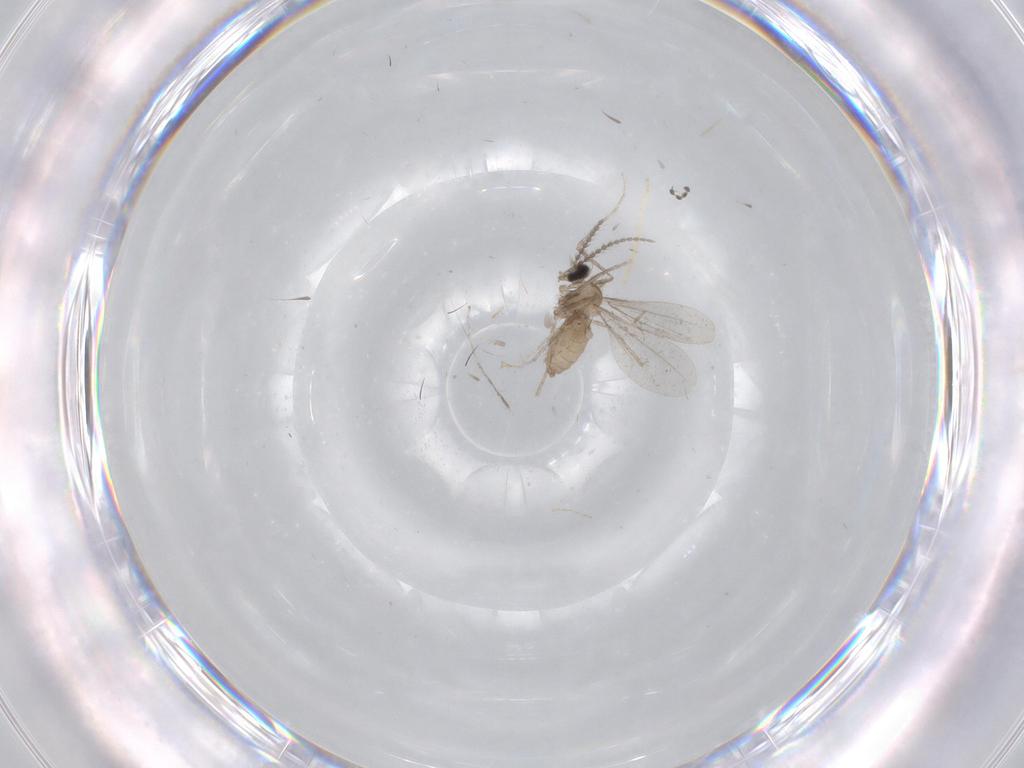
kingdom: Animalia
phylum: Arthropoda
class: Insecta
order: Diptera
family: Cecidomyiidae
